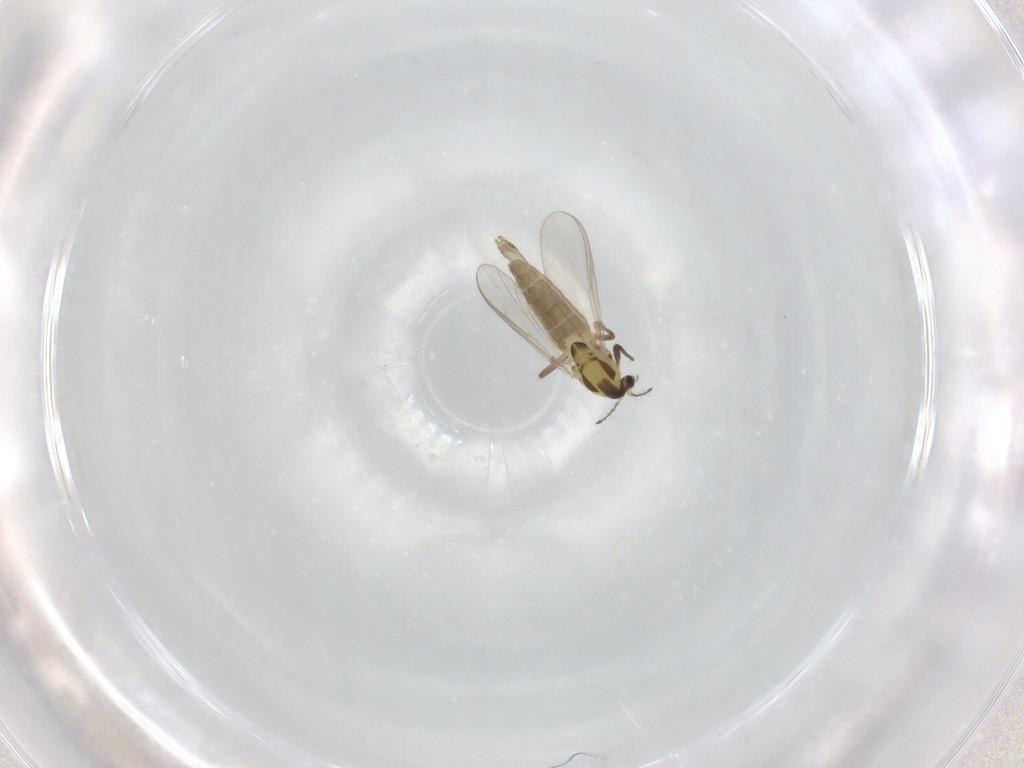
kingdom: Animalia
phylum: Arthropoda
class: Insecta
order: Diptera
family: Chironomidae
